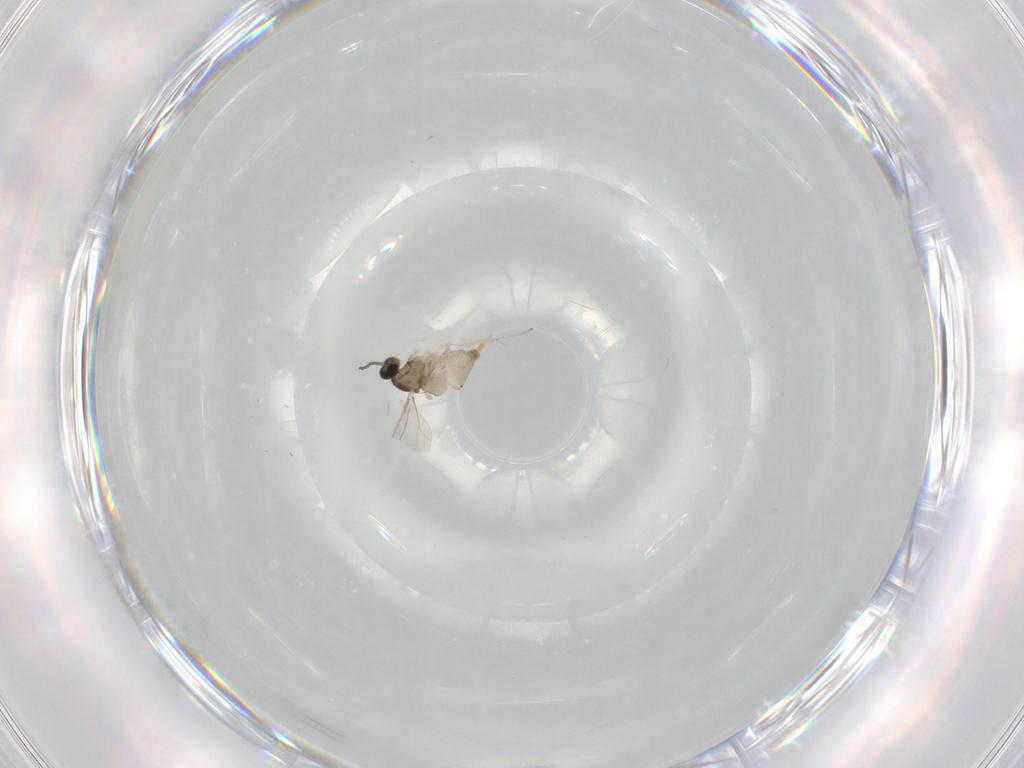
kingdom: Animalia
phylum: Arthropoda
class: Insecta
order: Diptera
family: Cecidomyiidae
